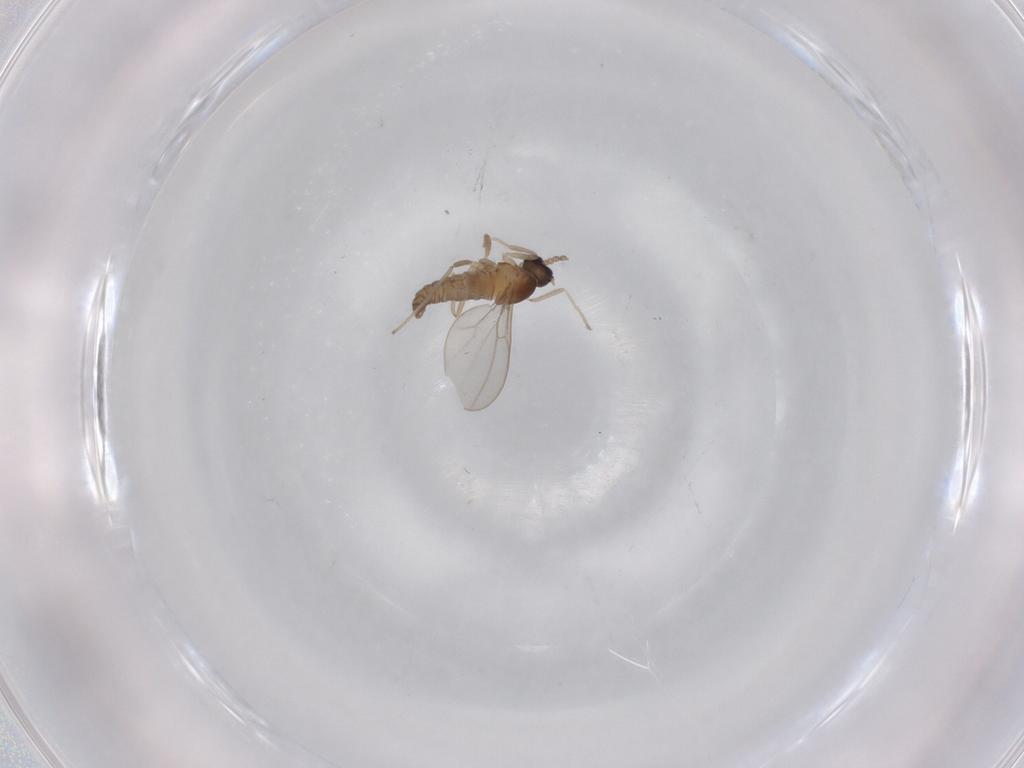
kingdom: Animalia
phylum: Arthropoda
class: Insecta
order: Diptera
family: Cecidomyiidae
